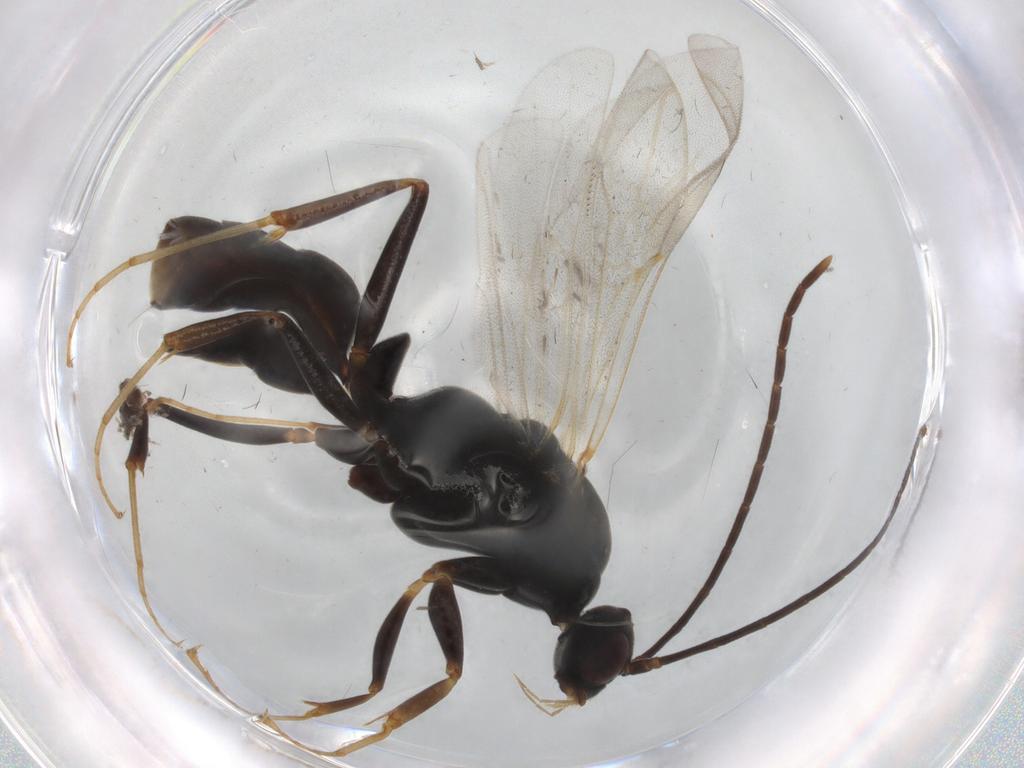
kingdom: Animalia
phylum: Arthropoda
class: Insecta
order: Hymenoptera
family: Formicidae
